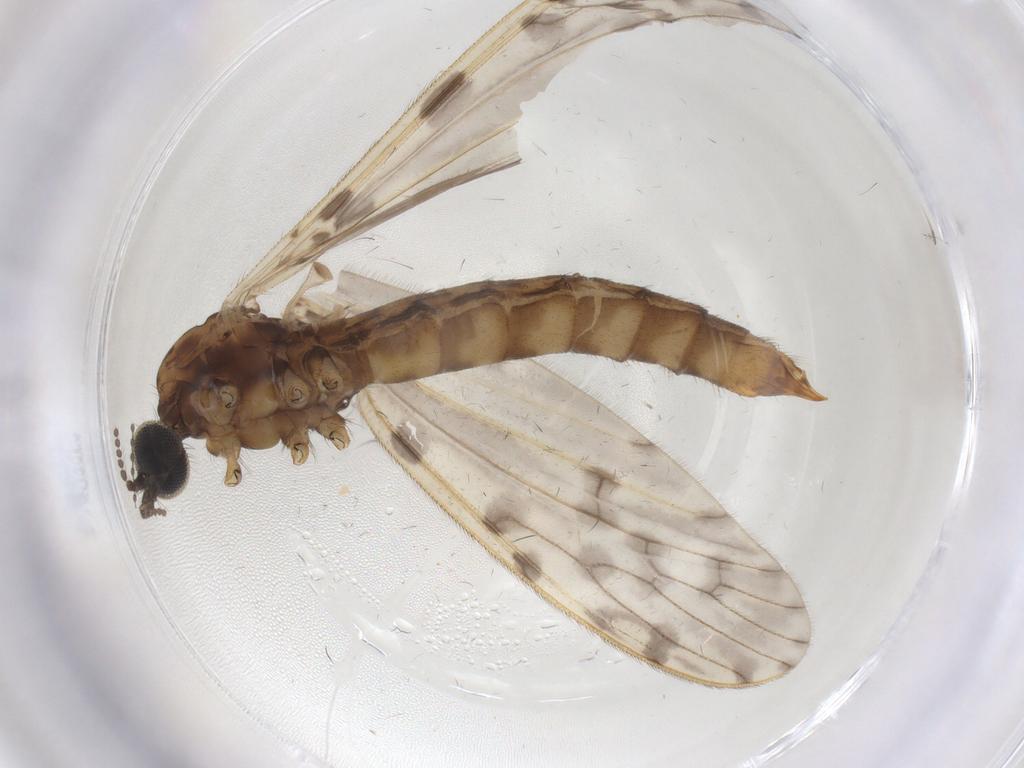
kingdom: Animalia
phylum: Arthropoda
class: Insecta
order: Diptera
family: Limoniidae
